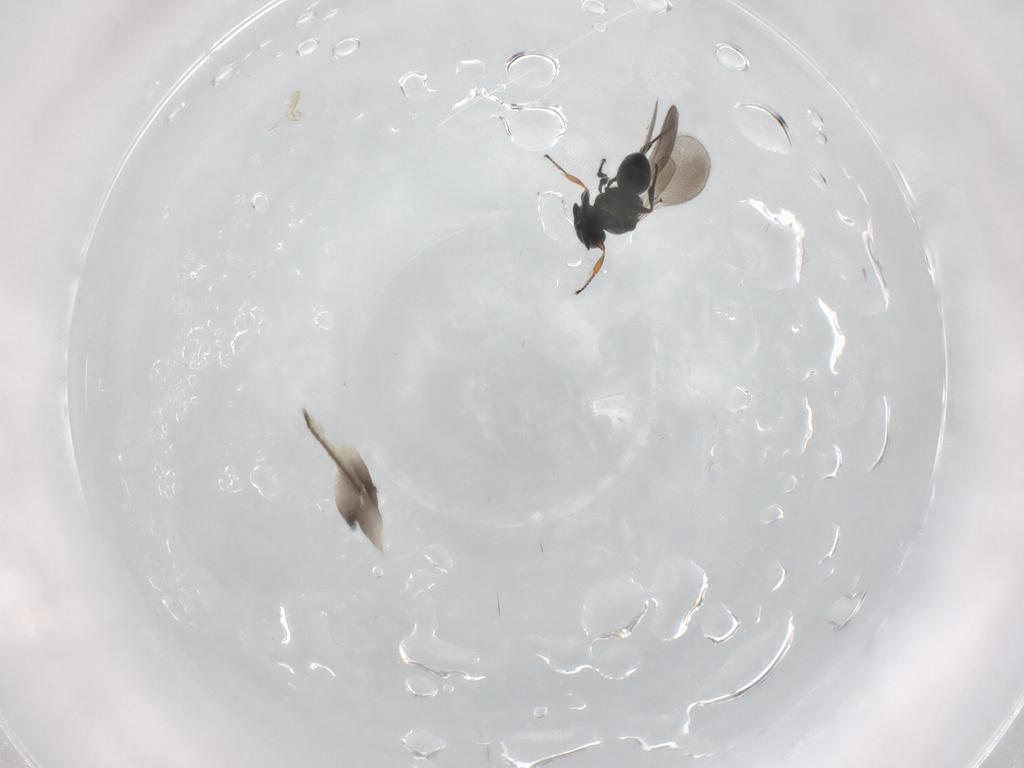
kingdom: Animalia
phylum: Arthropoda
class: Insecta
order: Hymenoptera
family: Platygastridae
